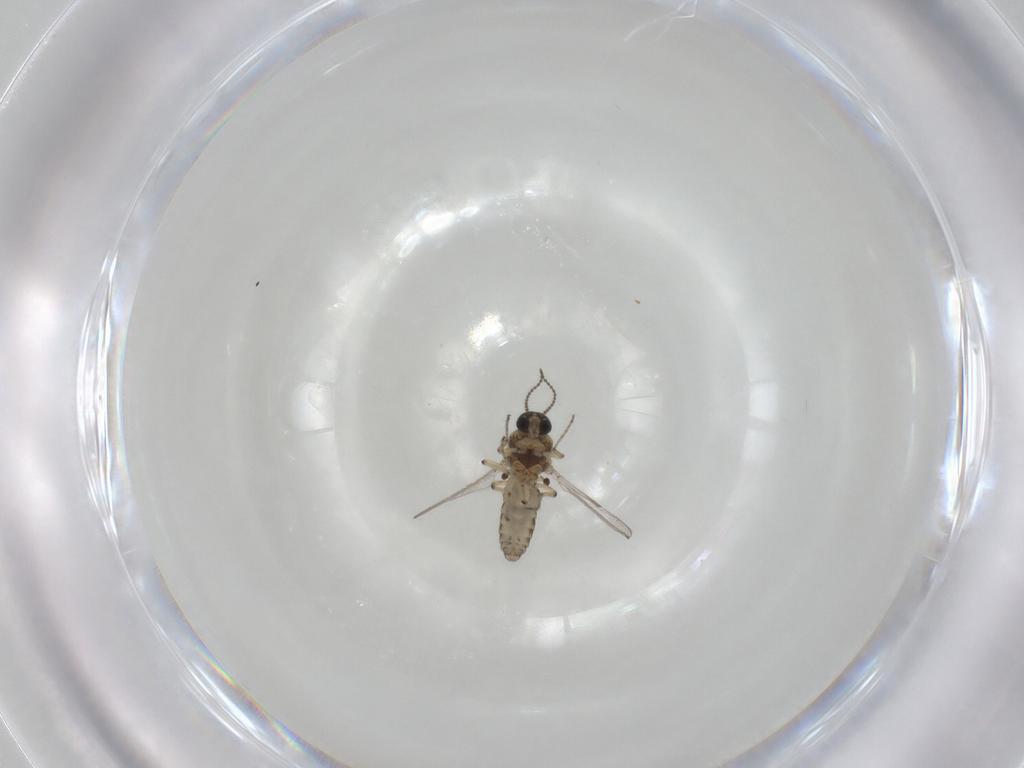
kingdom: Animalia
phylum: Arthropoda
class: Insecta
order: Diptera
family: Ceratopogonidae
